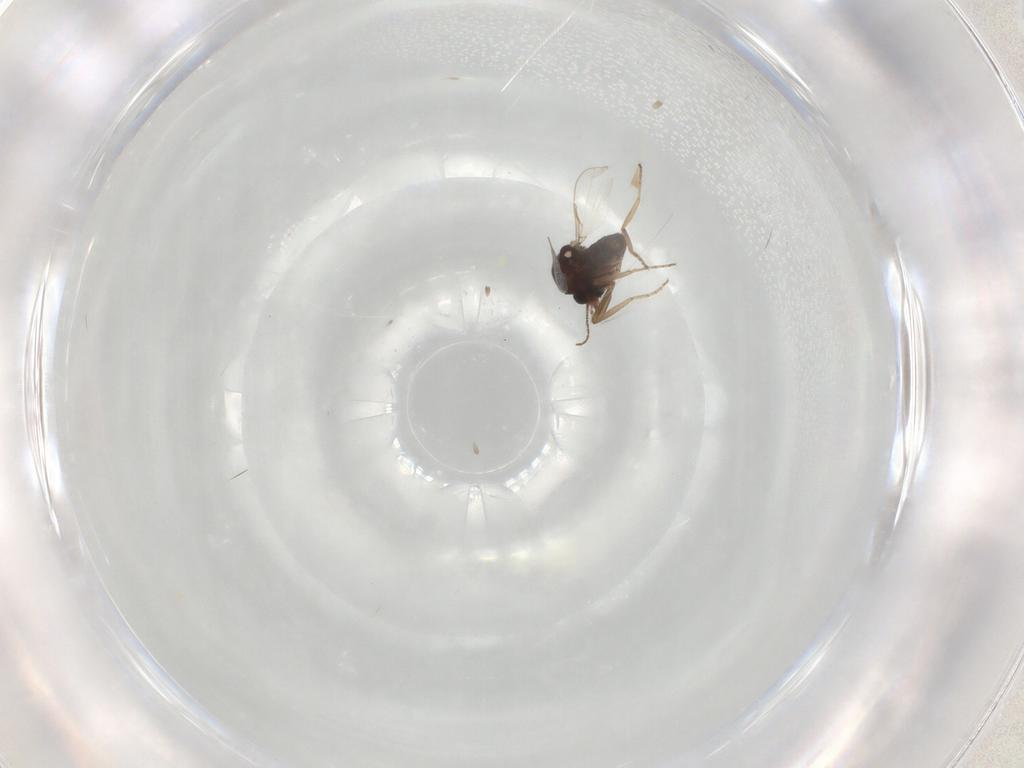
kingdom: Animalia
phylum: Arthropoda
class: Insecta
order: Diptera
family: Ceratopogonidae
